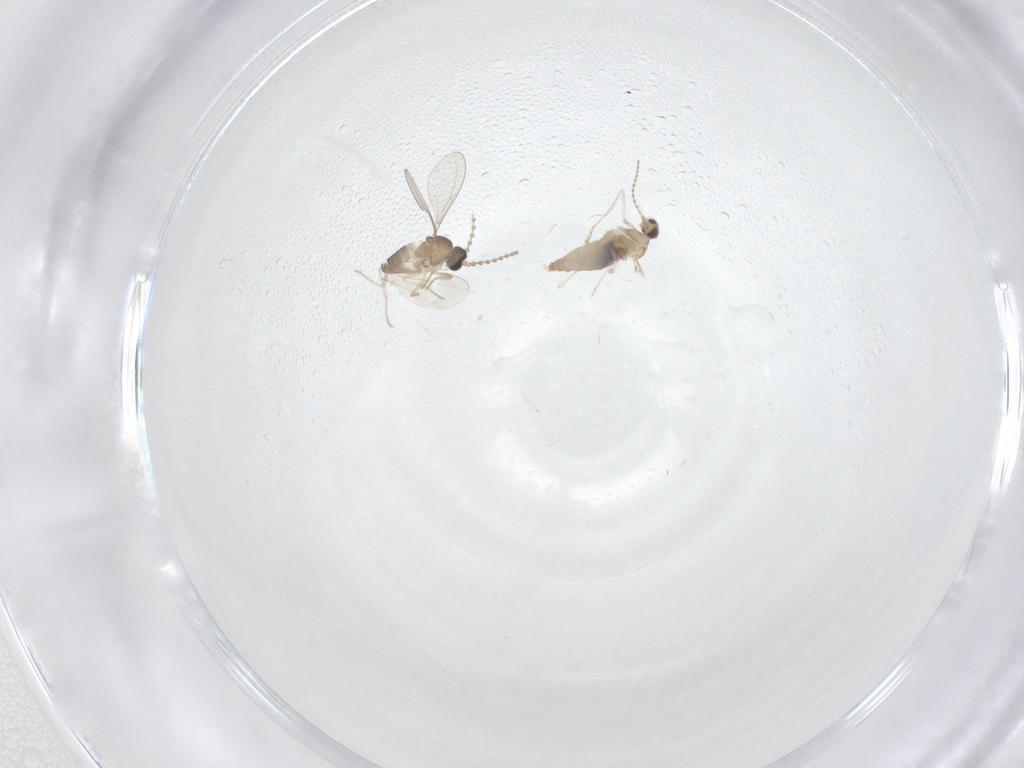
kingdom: Animalia
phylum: Arthropoda
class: Insecta
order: Diptera
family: Cecidomyiidae
